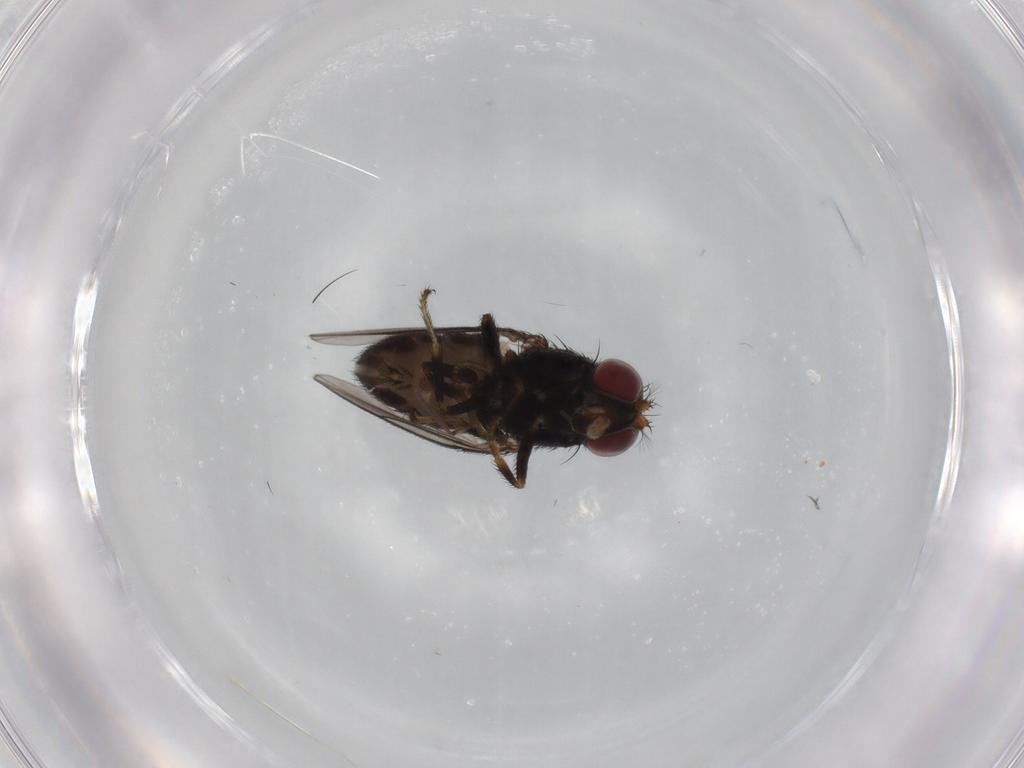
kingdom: Animalia
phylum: Arthropoda
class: Insecta
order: Diptera
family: Ephydridae
